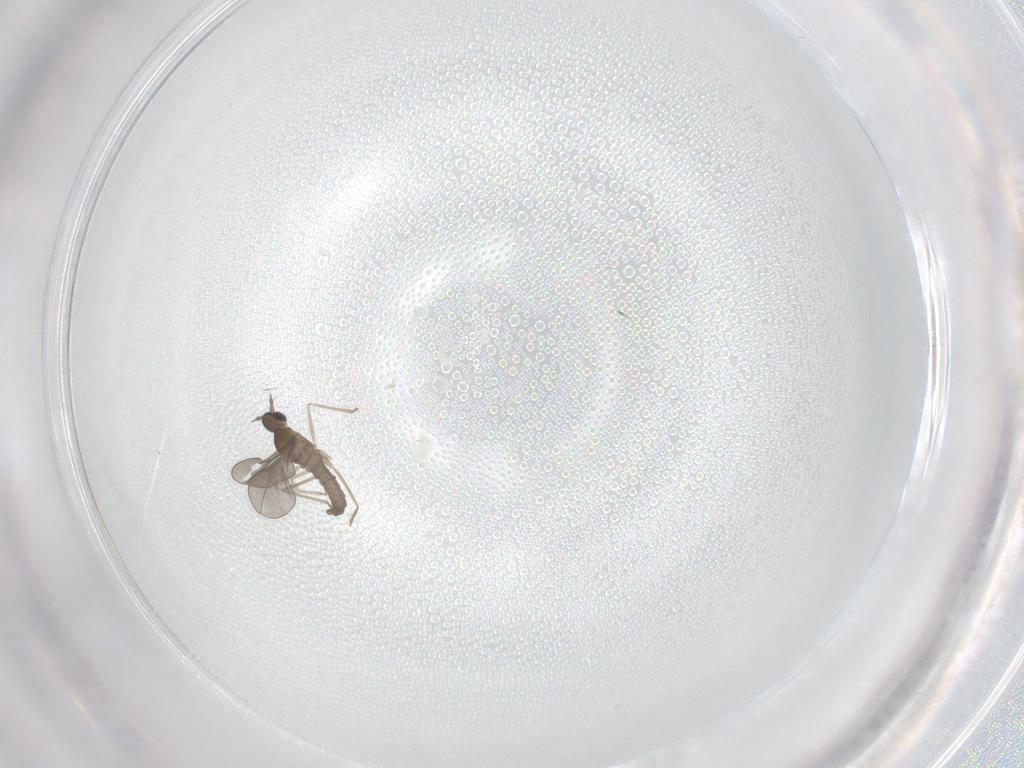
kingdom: Animalia
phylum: Arthropoda
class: Insecta
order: Diptera
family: Cecidomyiidae
